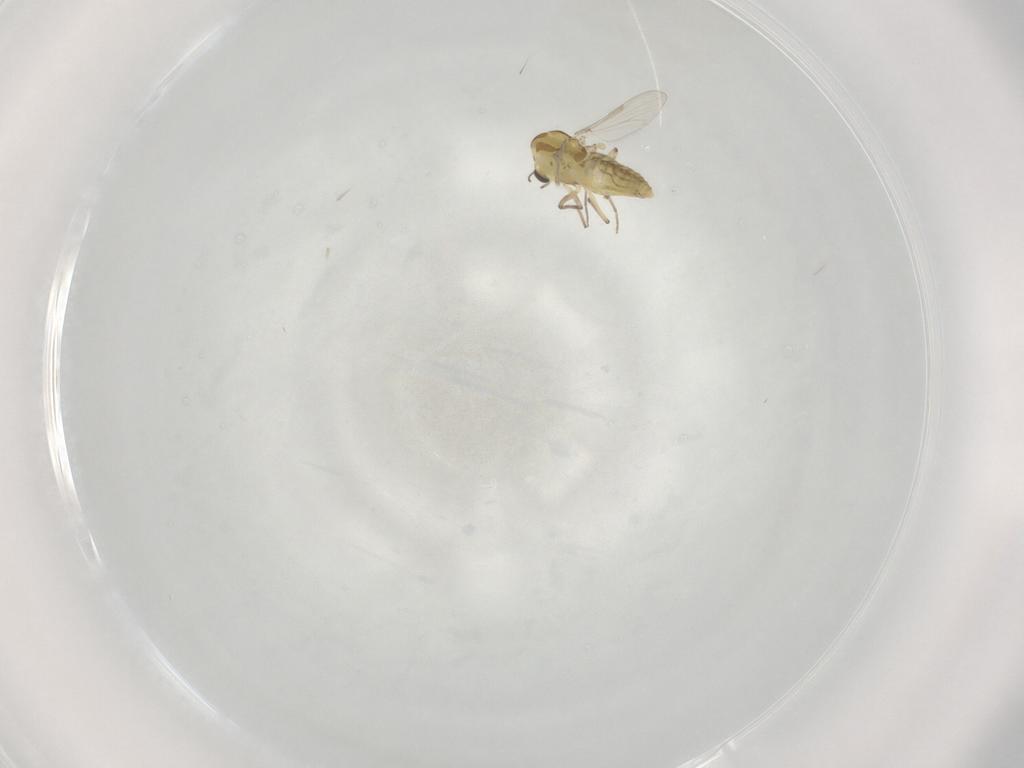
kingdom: Animalia
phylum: Arthropoda
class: Insecta
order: Diptera
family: Chironomidae
